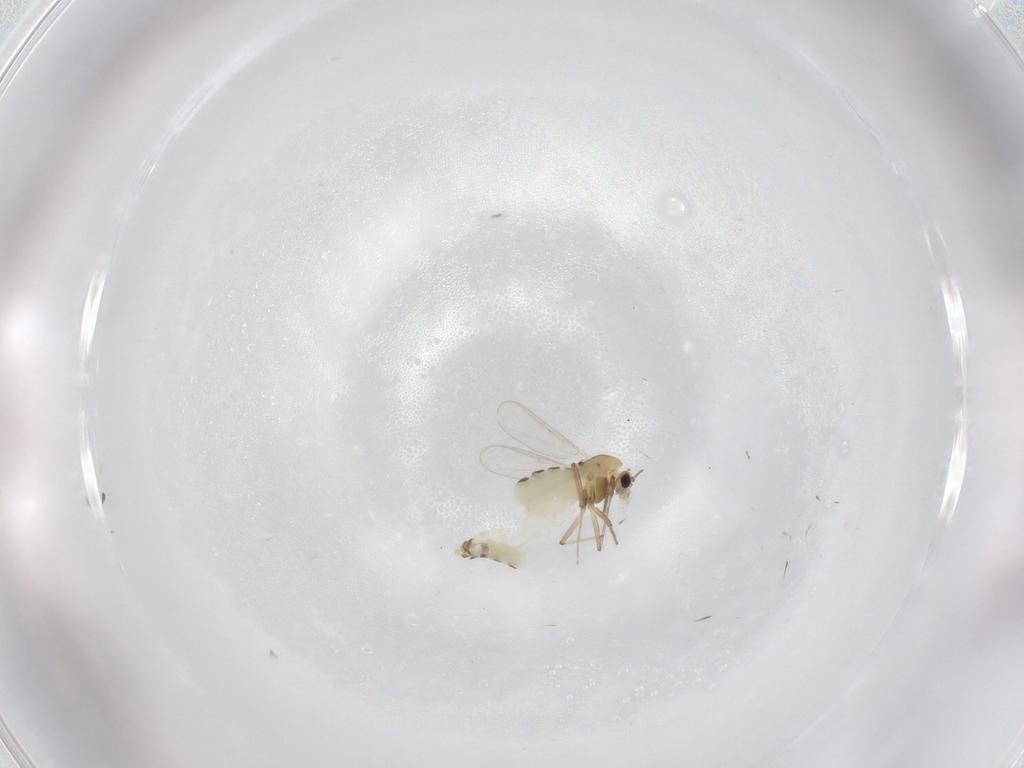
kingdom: Animalia
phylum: Arthropoda
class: Insecta
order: Diptera
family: Chironomidae
